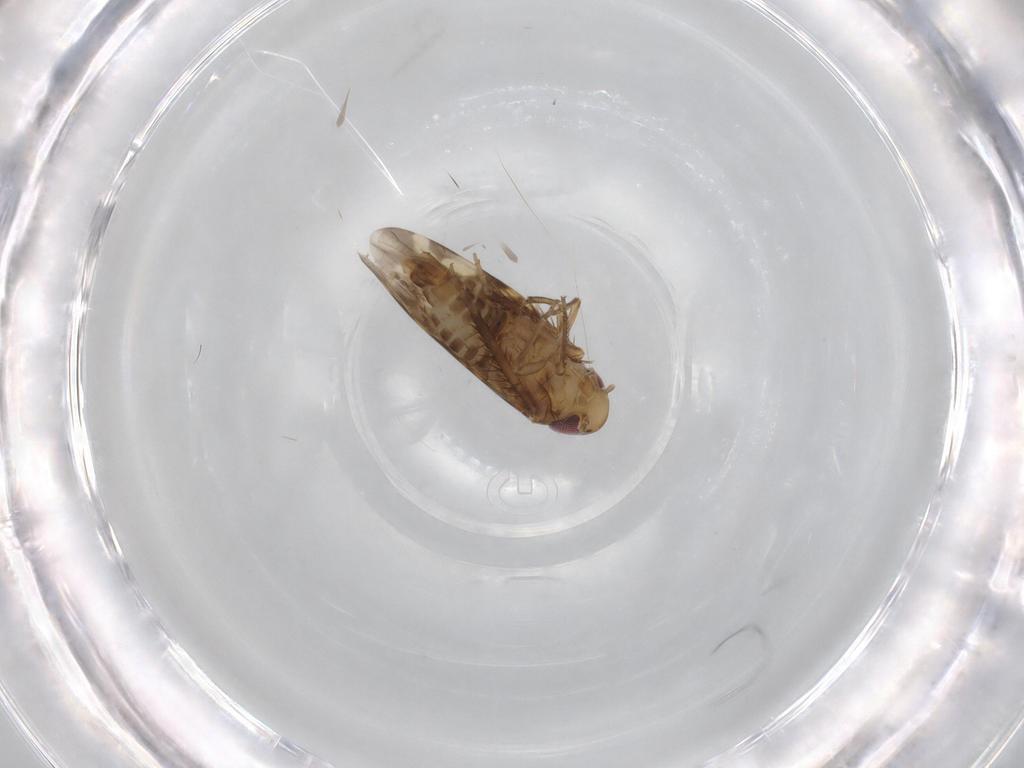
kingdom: Animalia
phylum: Arthropoda
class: Insecta
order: Hemiptera
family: Cicadellidae
